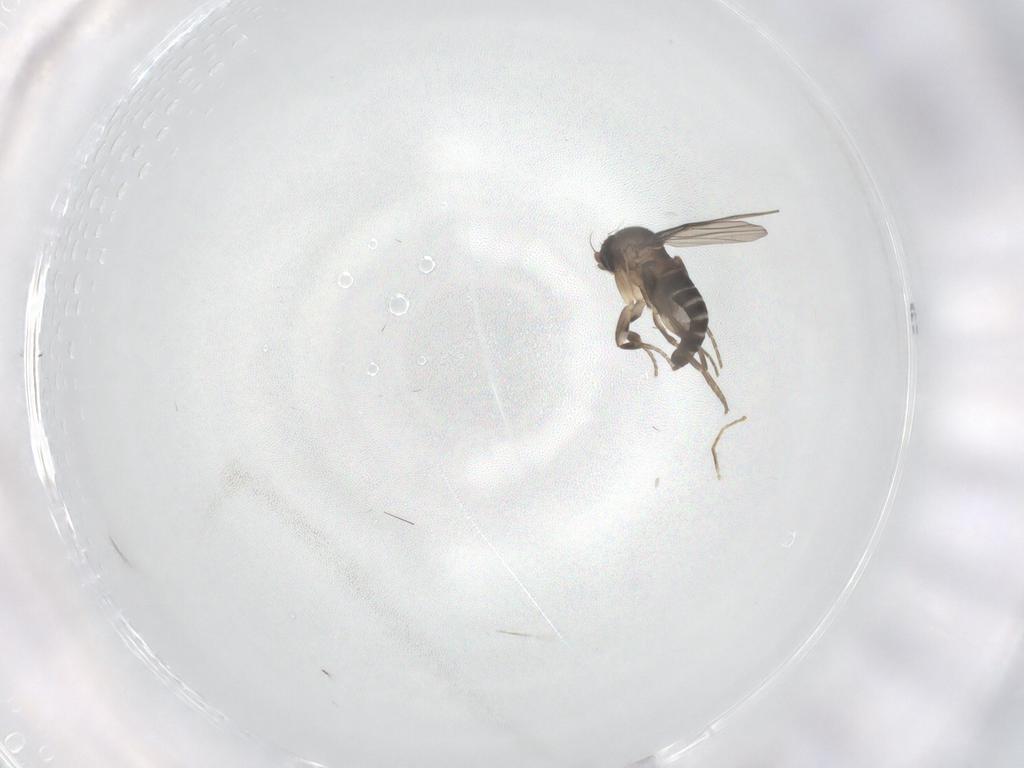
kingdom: Animalia
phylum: Arthropoda
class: Insecta
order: Diptera
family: Phoridae
